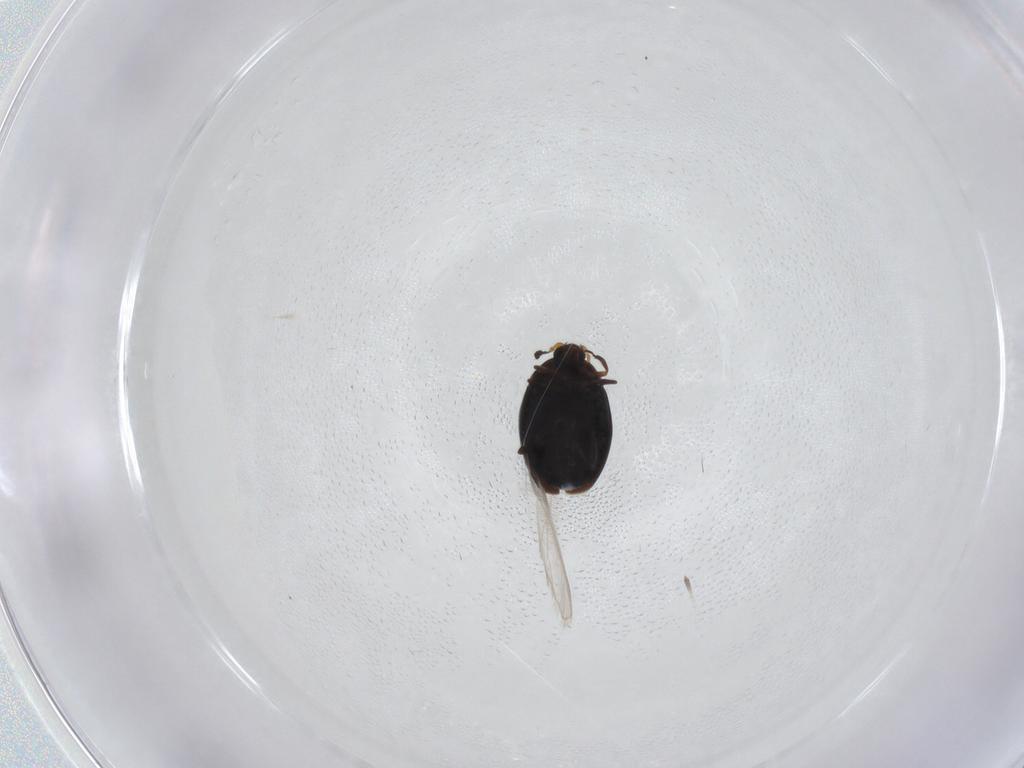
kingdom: Animalia
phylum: Arthropoda
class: Insecta
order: Coleoptera
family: Corylophidae
